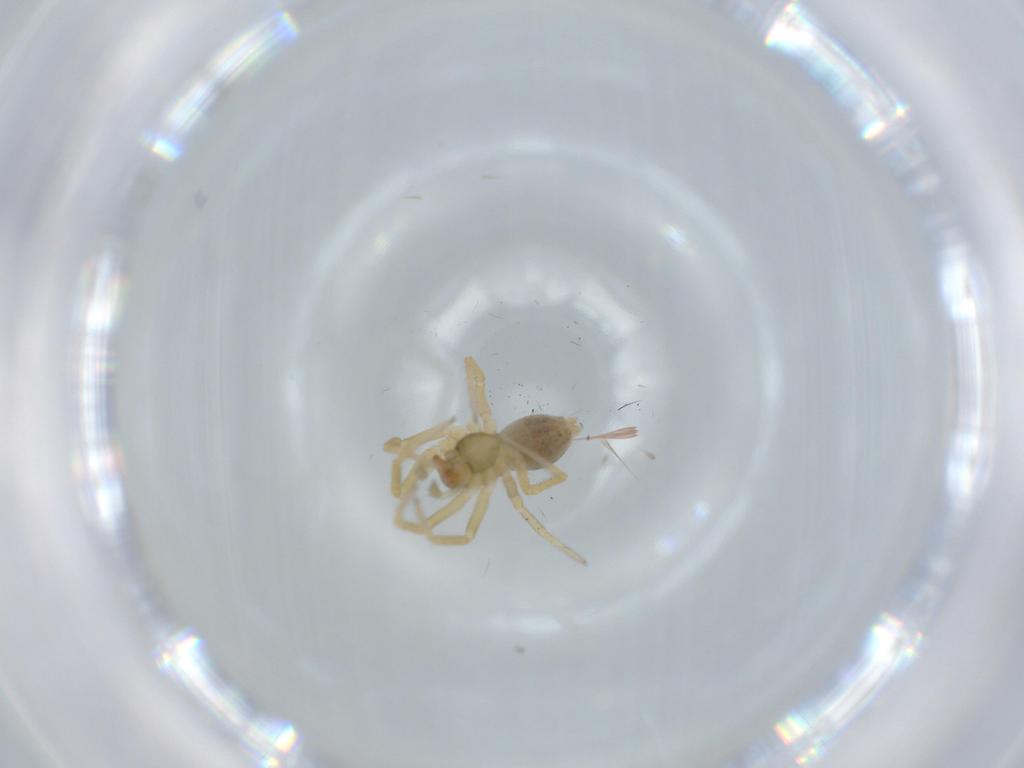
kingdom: Animalia
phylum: Arthropoda
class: Arachnida
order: Araneae
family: Linyphiidae
